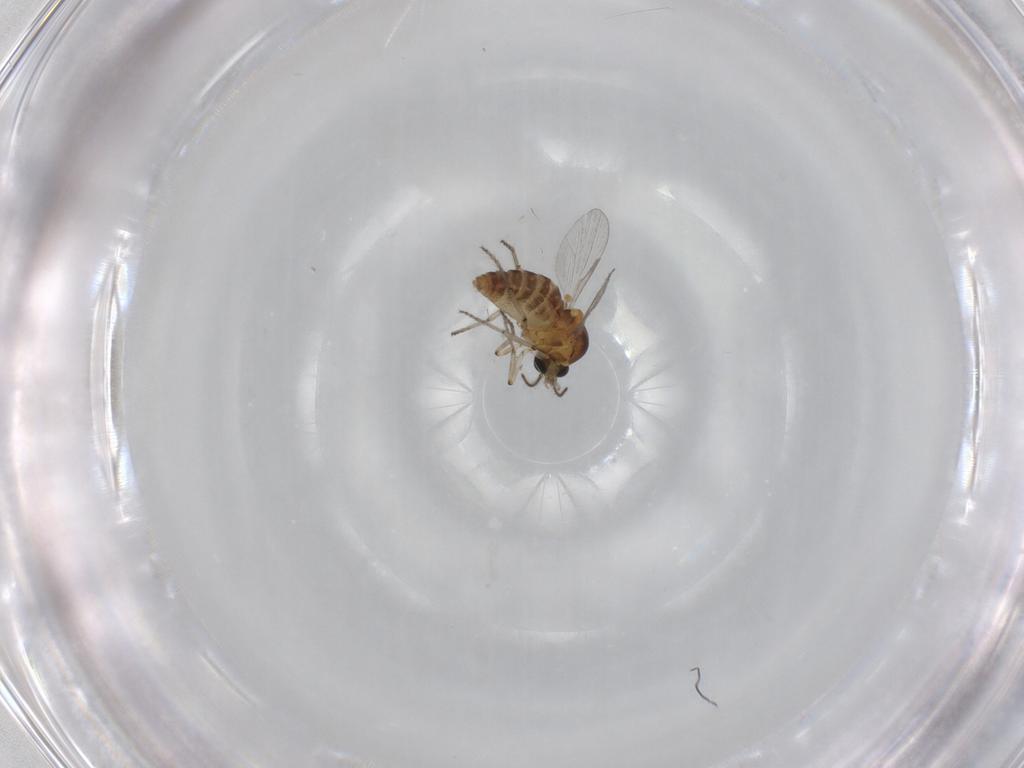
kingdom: Animalia
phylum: Arthropoda
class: Insecta
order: Diptera
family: Ceratopogonidae
